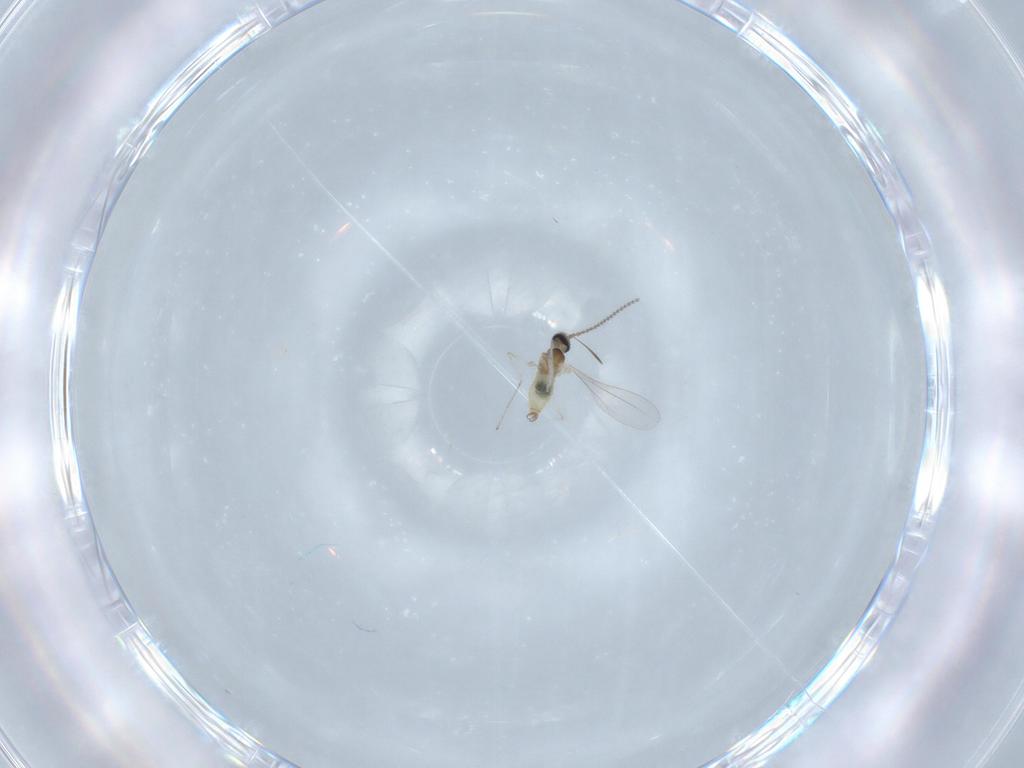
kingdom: Animalia
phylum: Arthropoda
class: Insecta
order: Diptera
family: Cecidomyiidae
